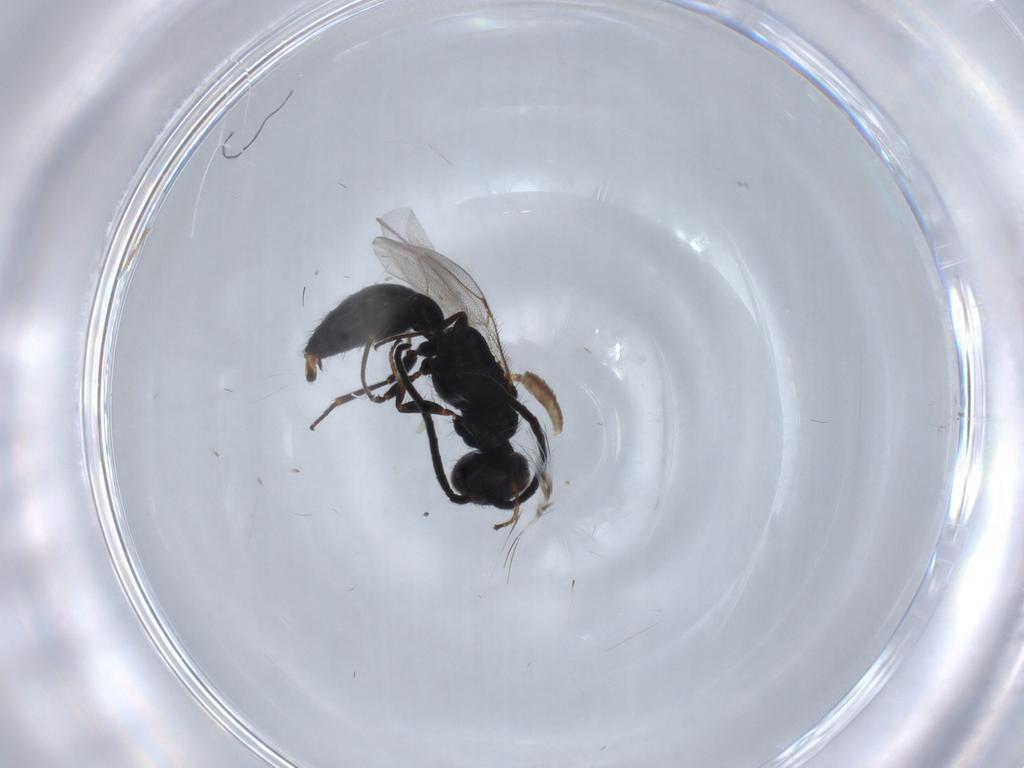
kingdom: Animalia
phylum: Arthropoda
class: Insecta
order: Hymenoptera
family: Bethylidae
